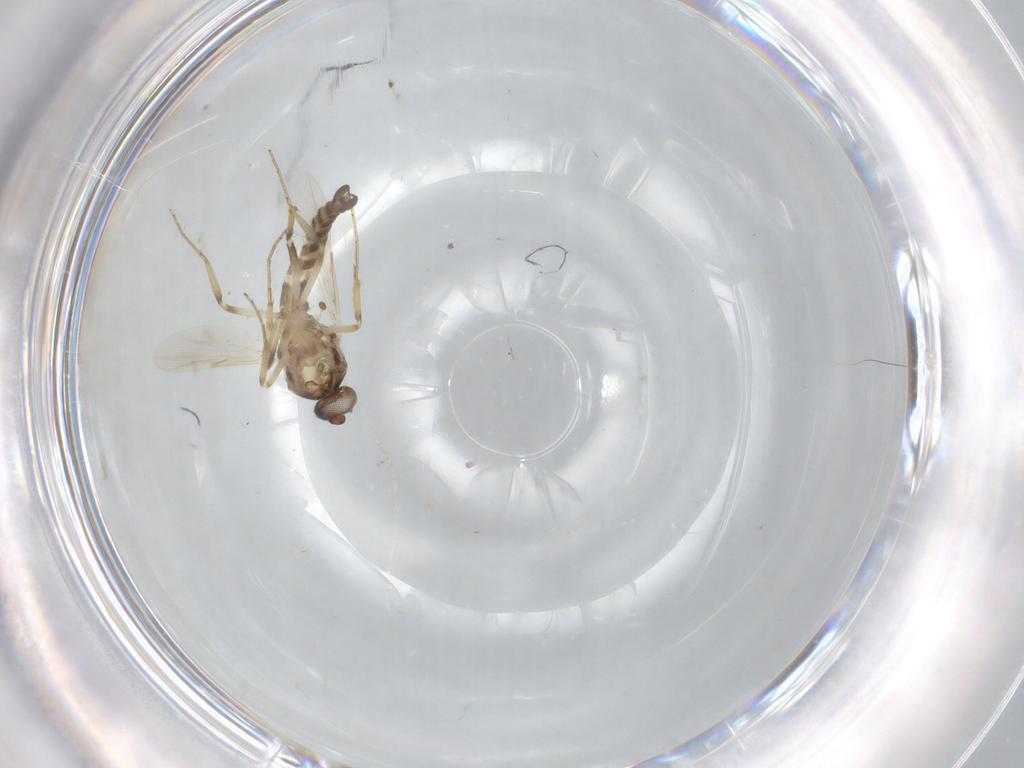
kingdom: Animalia
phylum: Arthropoda
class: Insecta
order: Diptera
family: Ceratopogonidae
